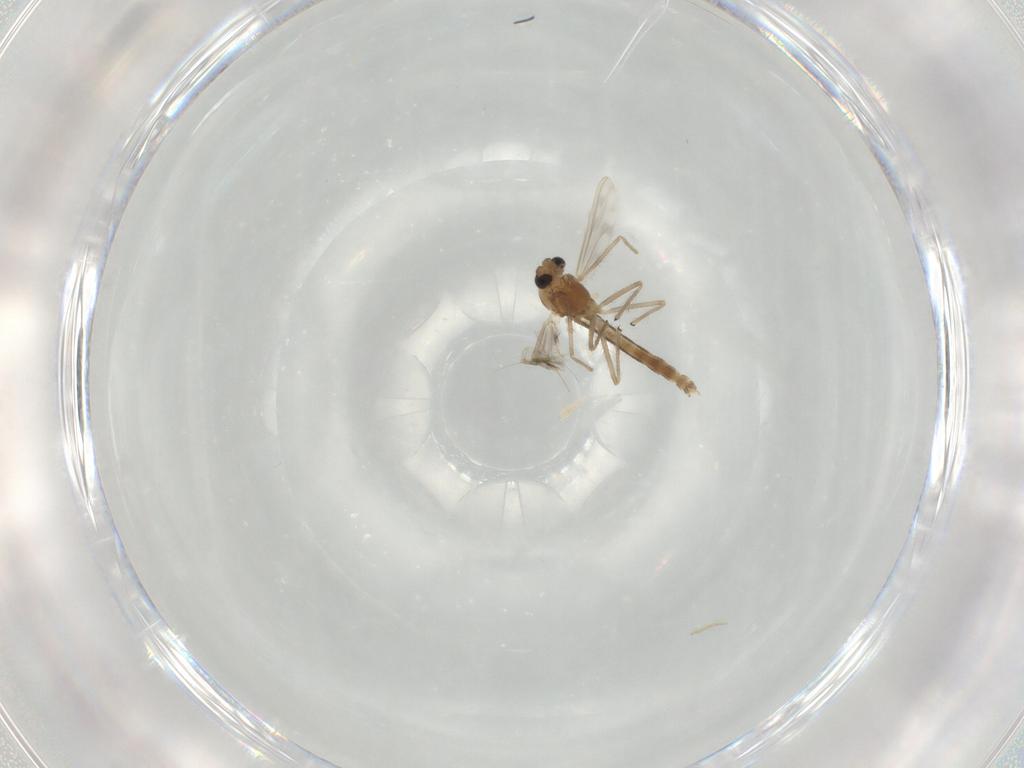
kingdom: Animalia
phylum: Arthropoda
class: Insecta
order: Diptera
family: Chironomidae
